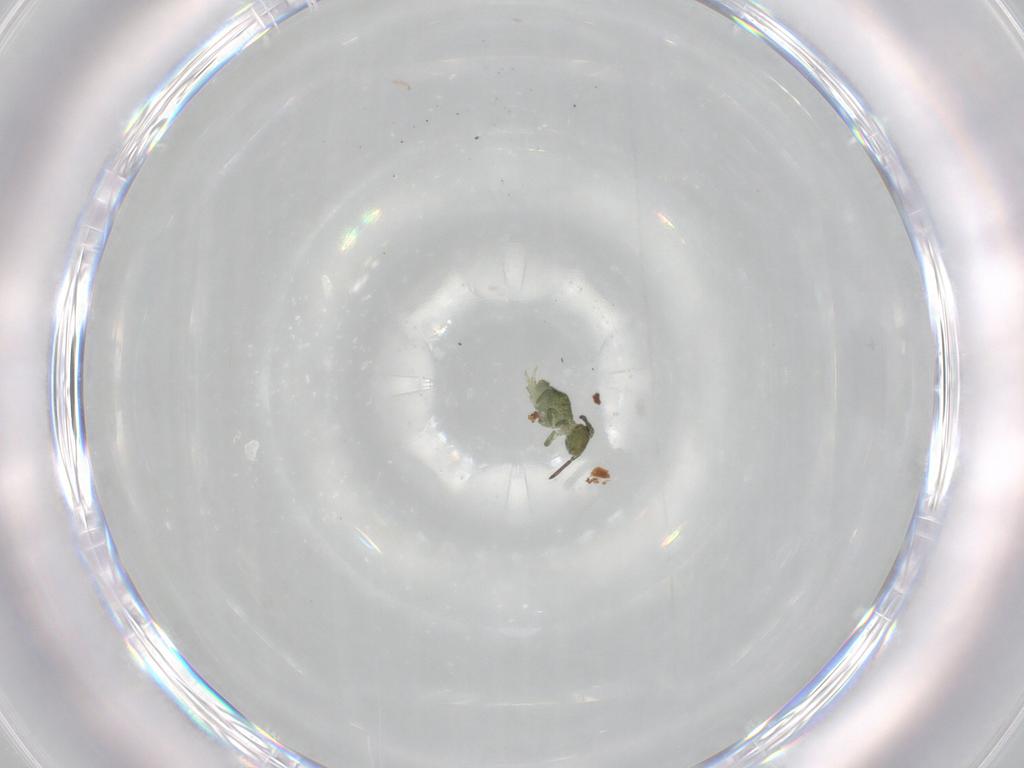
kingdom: Animalia
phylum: Arthropoda
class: Collembola
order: Symphypleona
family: Sminthuridae
